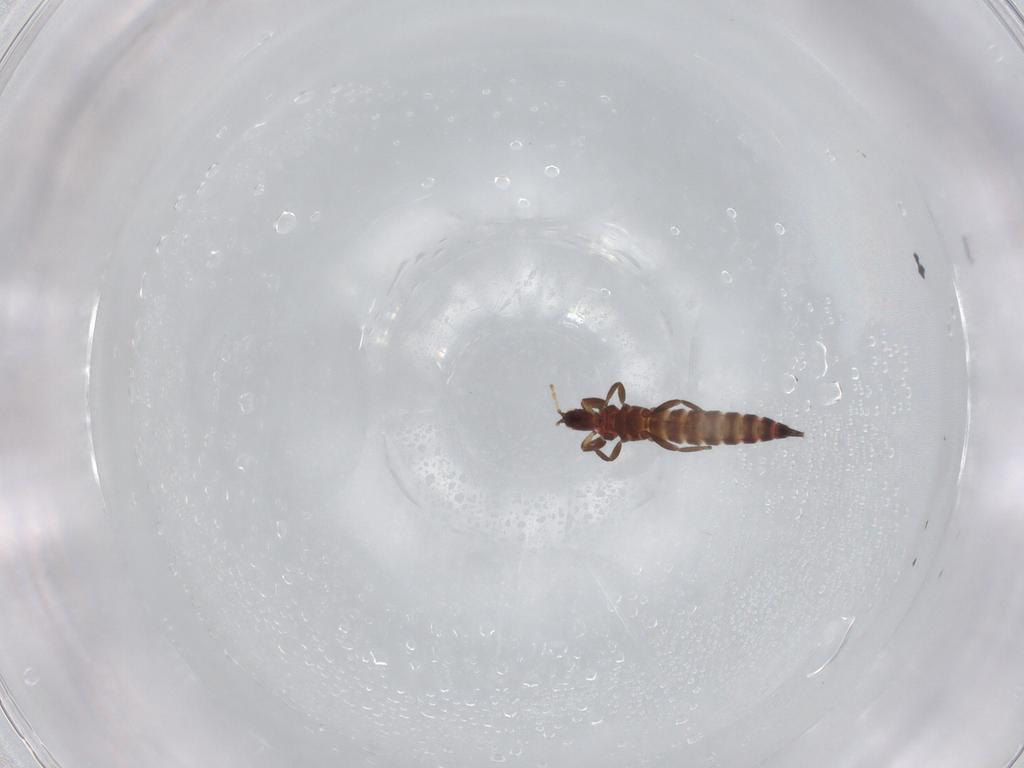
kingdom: Animalia
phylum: Arthropoda
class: Insecta
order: Thysanoptera
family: Phlaeothripidae
